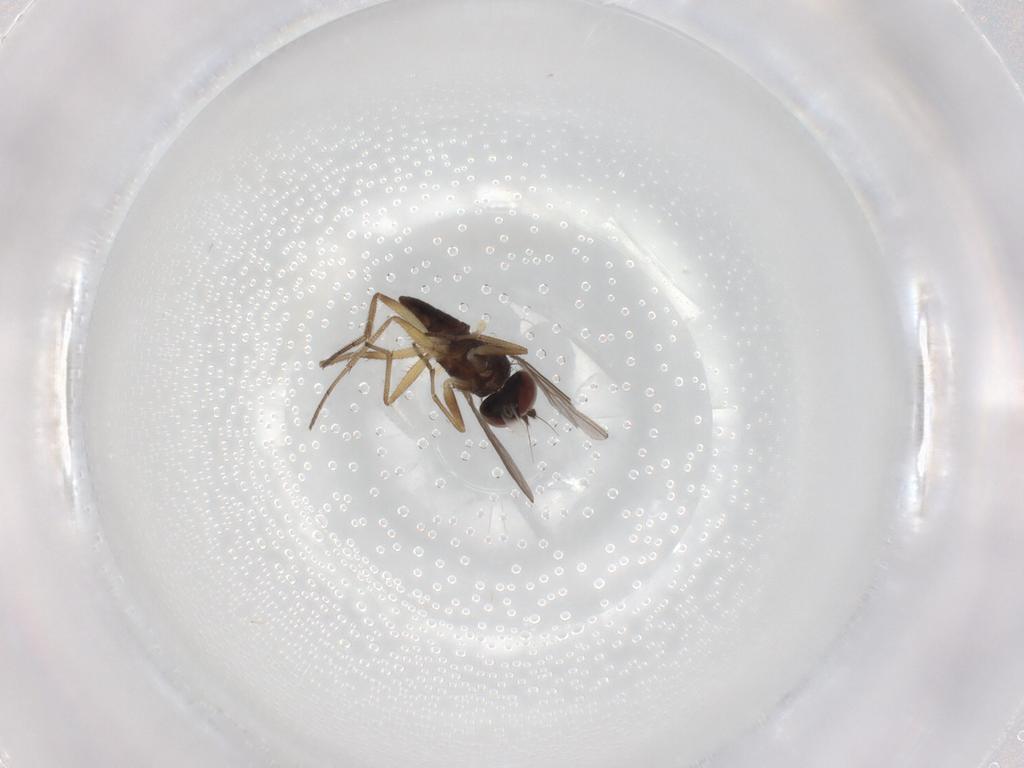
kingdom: Animalia
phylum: Arthropoda
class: Insecta
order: Diptera
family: Dolichopodidae
